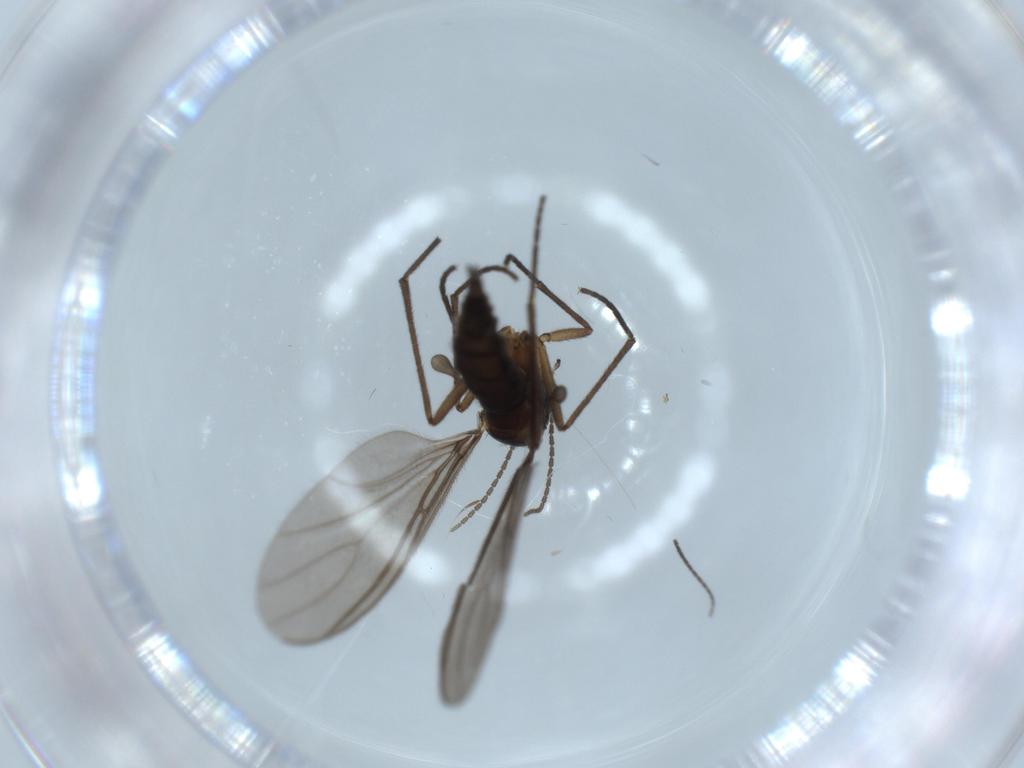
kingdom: Animalia
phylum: Arthropoda
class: Insecta
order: Diptera
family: Sciaridae
